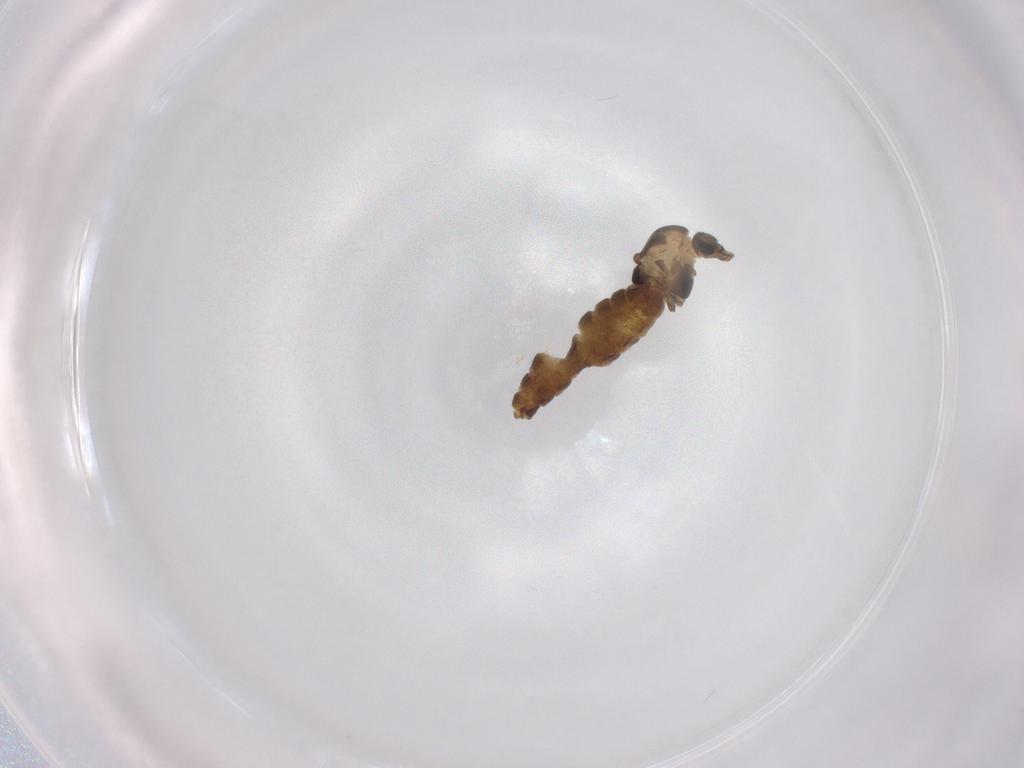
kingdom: Animalia
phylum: Arthropoda
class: Insecta
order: Diptera
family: Chironomidae
